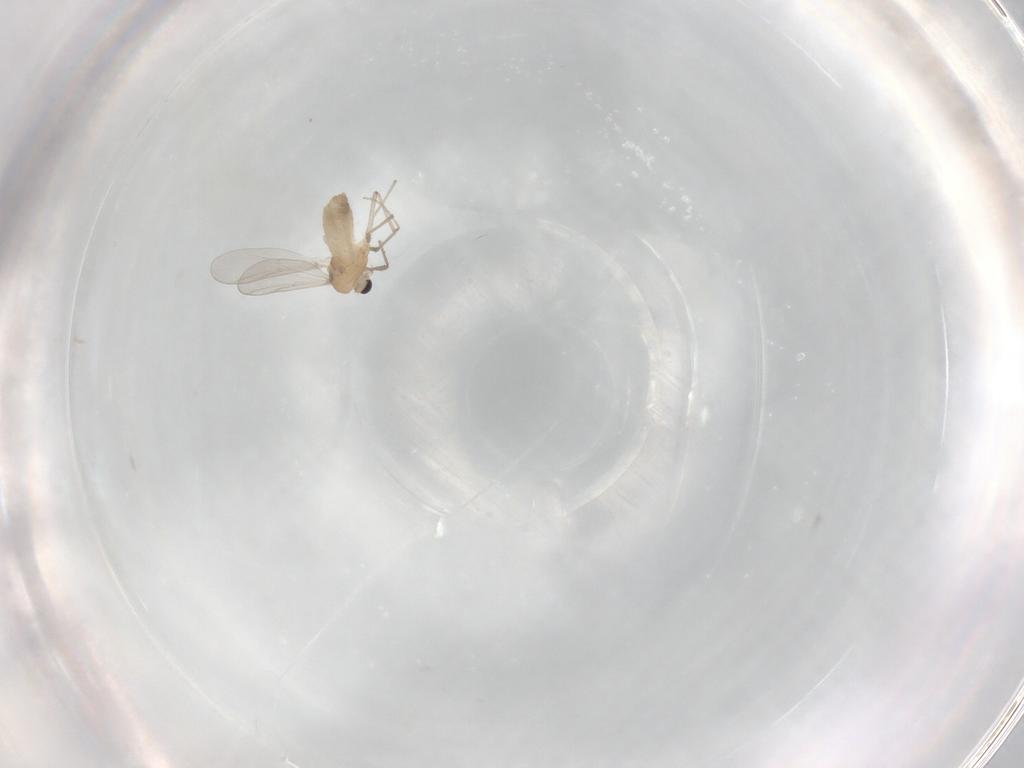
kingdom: Animalia
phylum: Arthropoda
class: Insecta
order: Diptera
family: Chironomidae
